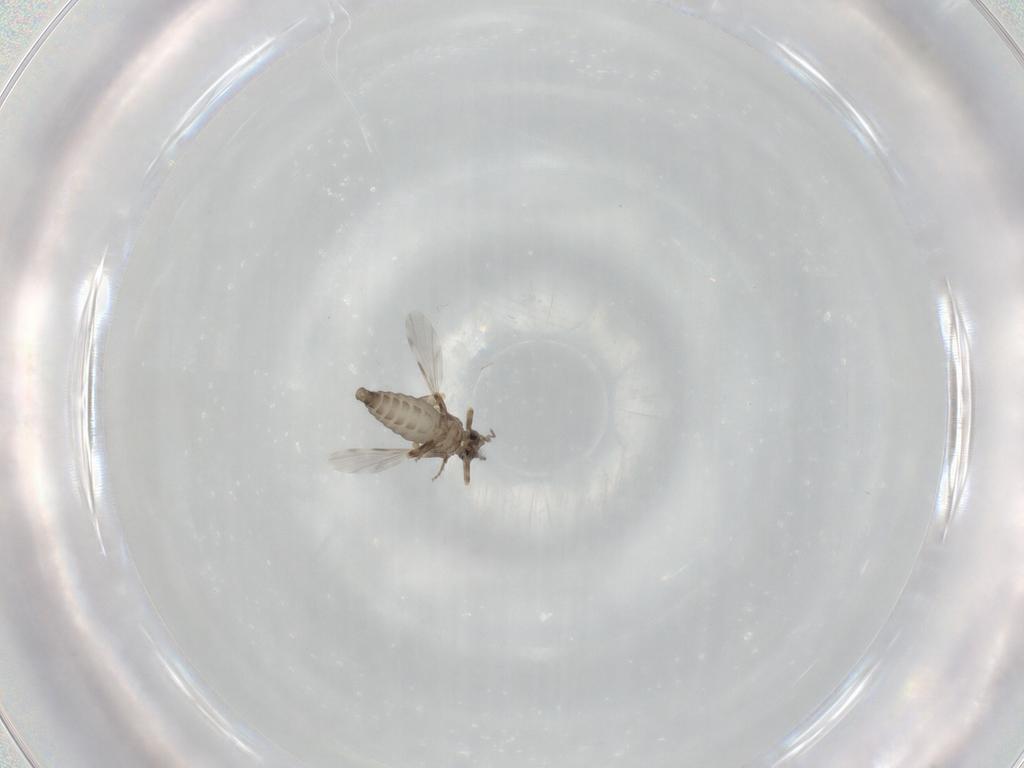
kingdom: Animalia
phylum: Arthropoda
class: Insecta
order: Diptera
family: Ceratopogonidae
